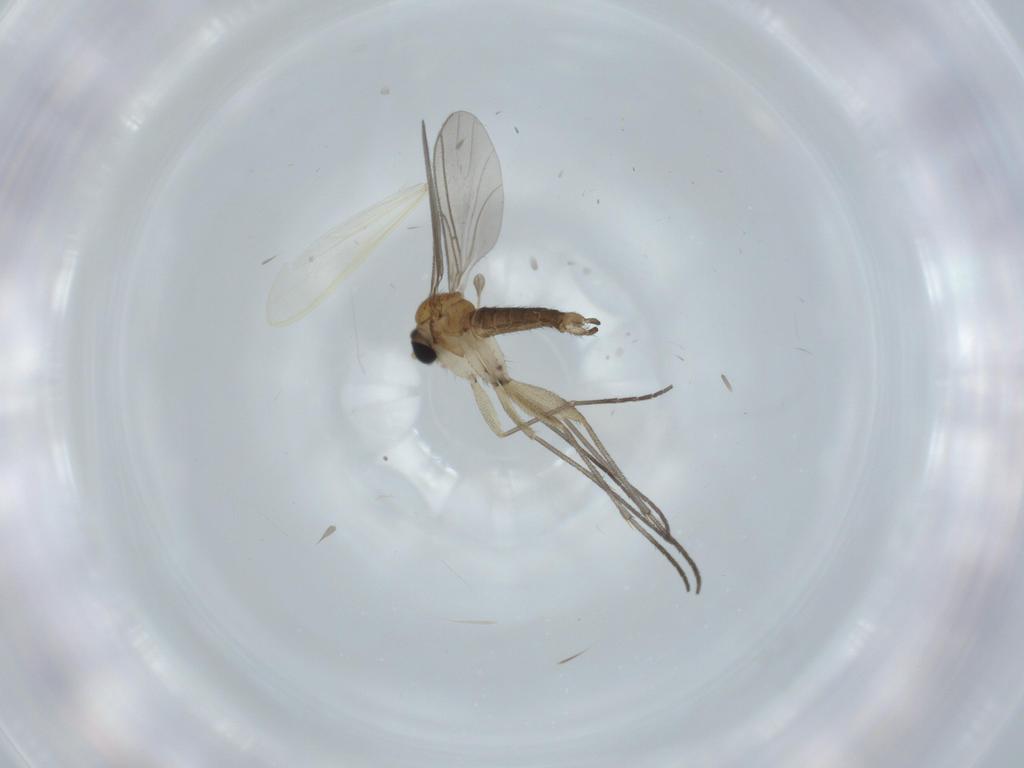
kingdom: Animalia
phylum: Arthropoda
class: Insecta
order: Diptera
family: Sciaridae
